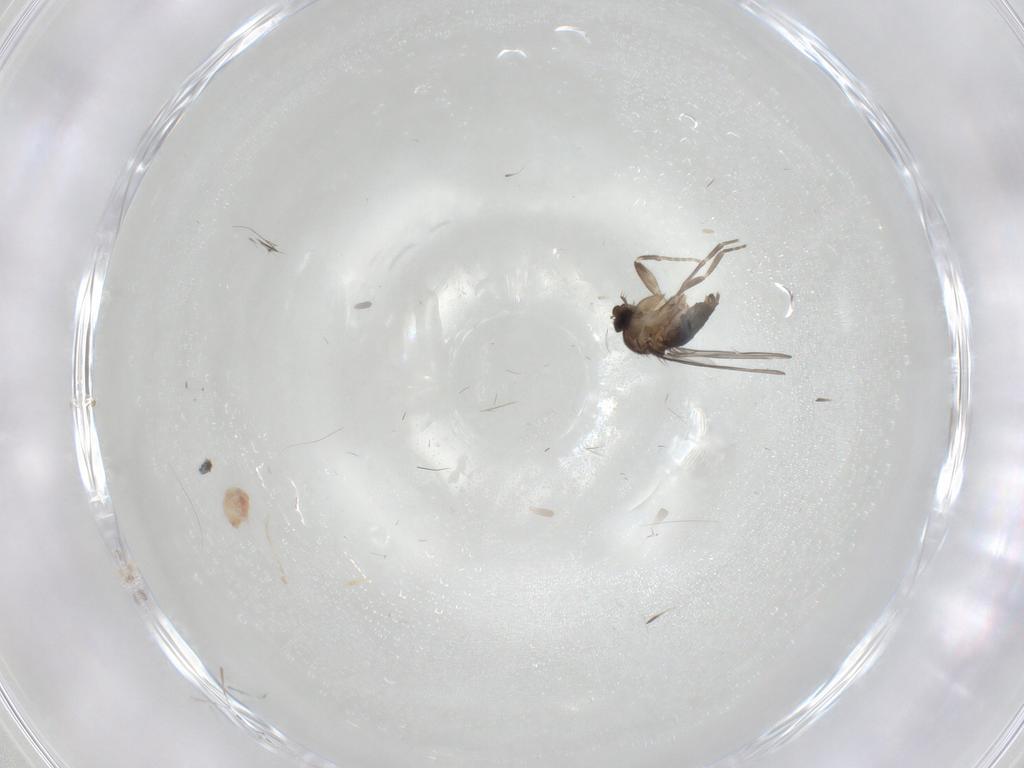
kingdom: Animalia
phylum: Arthropoda
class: Insecta
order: Diptera
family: Phoridae
